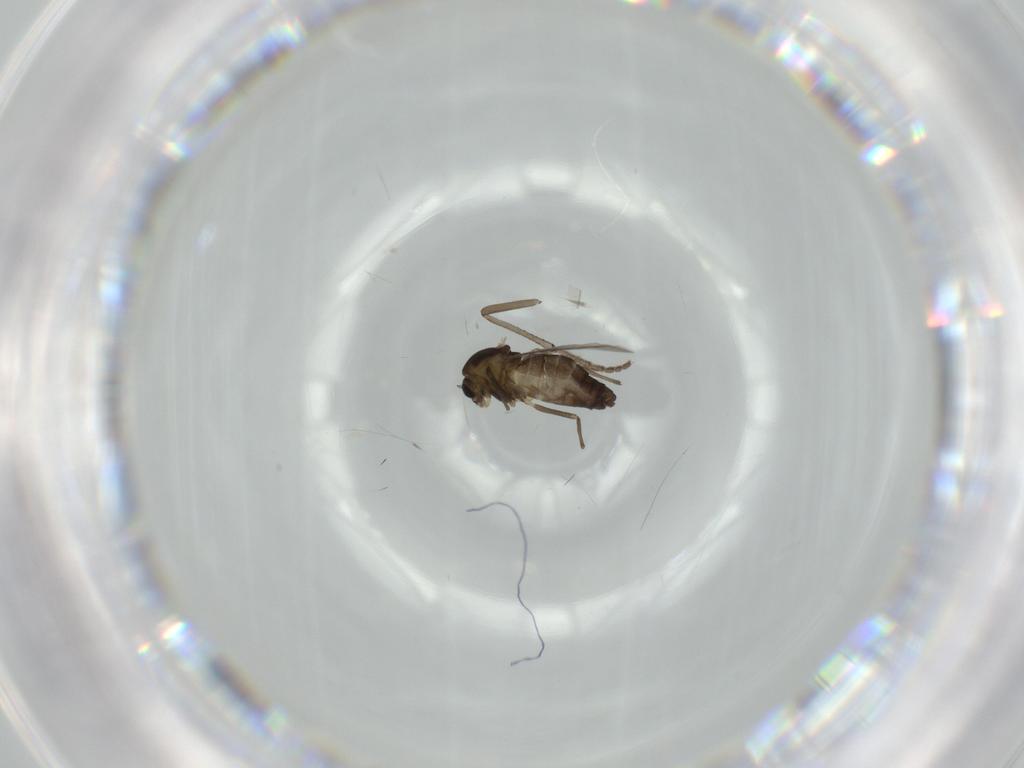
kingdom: Animalia
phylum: Arthropoda
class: Insecta
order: Diptera
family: Chironomidae
